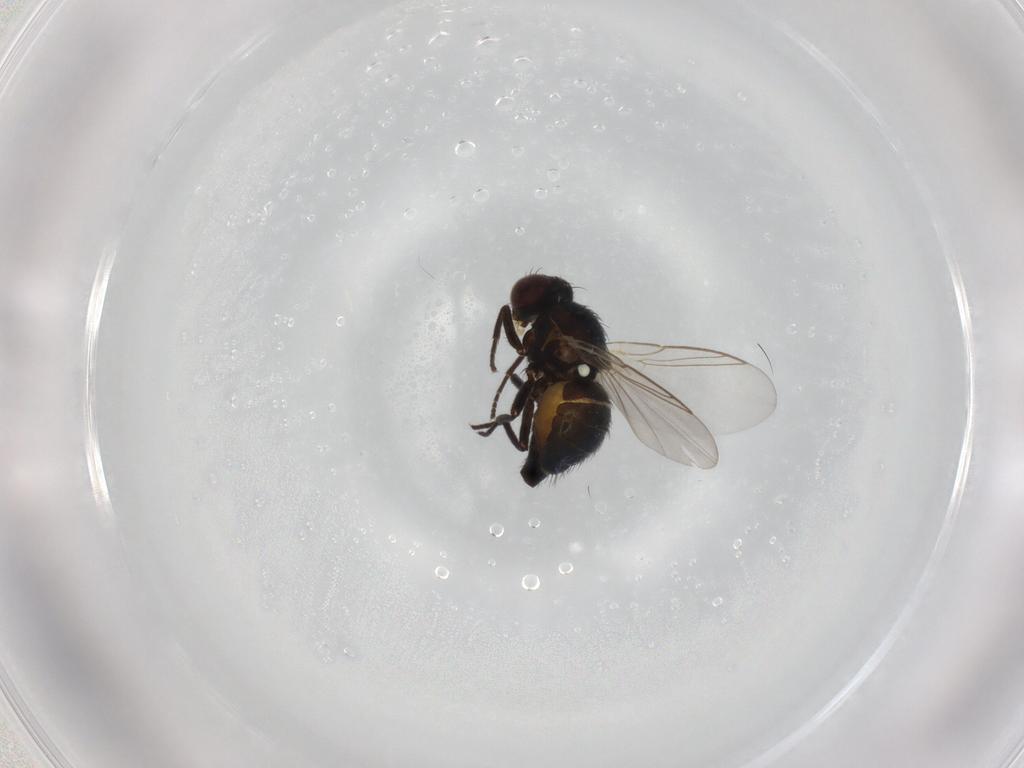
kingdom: Animalia
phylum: Arthropoda
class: Insecta
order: Diptera
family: Agromyzidae
